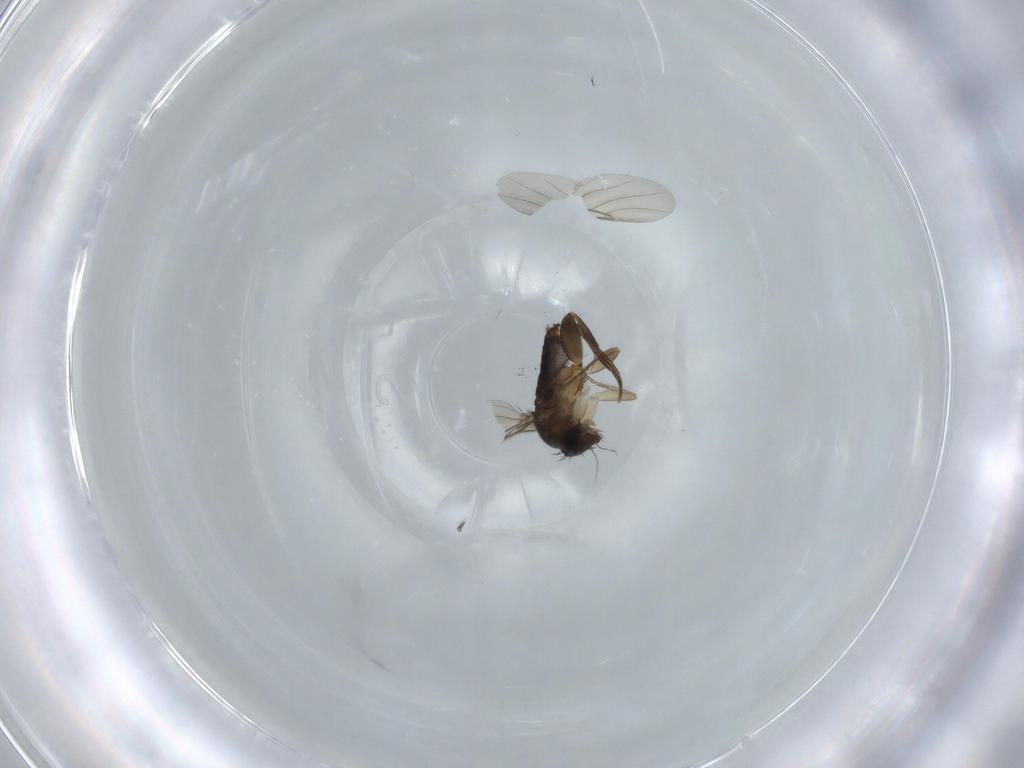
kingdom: Animalia
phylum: Arthropoda
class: Insecta
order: Diptera
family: Phoridae
